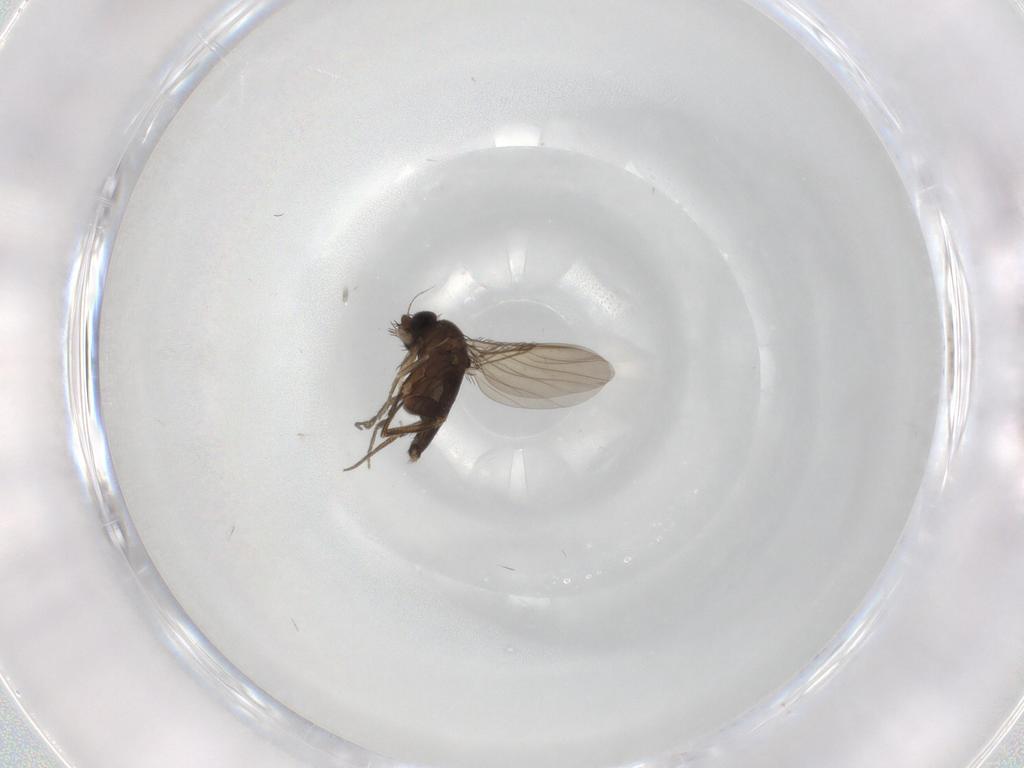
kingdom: Animalia
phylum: Arthropoda
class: Insecta
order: Diptera
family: Phoridae
